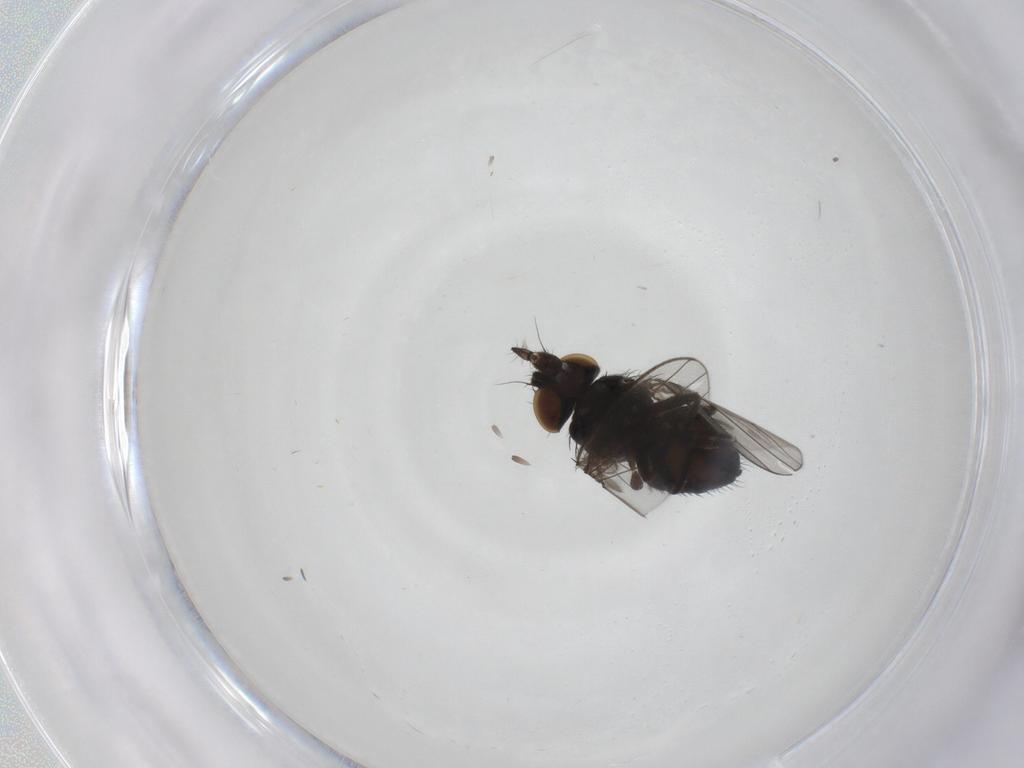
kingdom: Animalia
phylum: Arthropoda
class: Insecta
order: Diptera
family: Milichiidae
